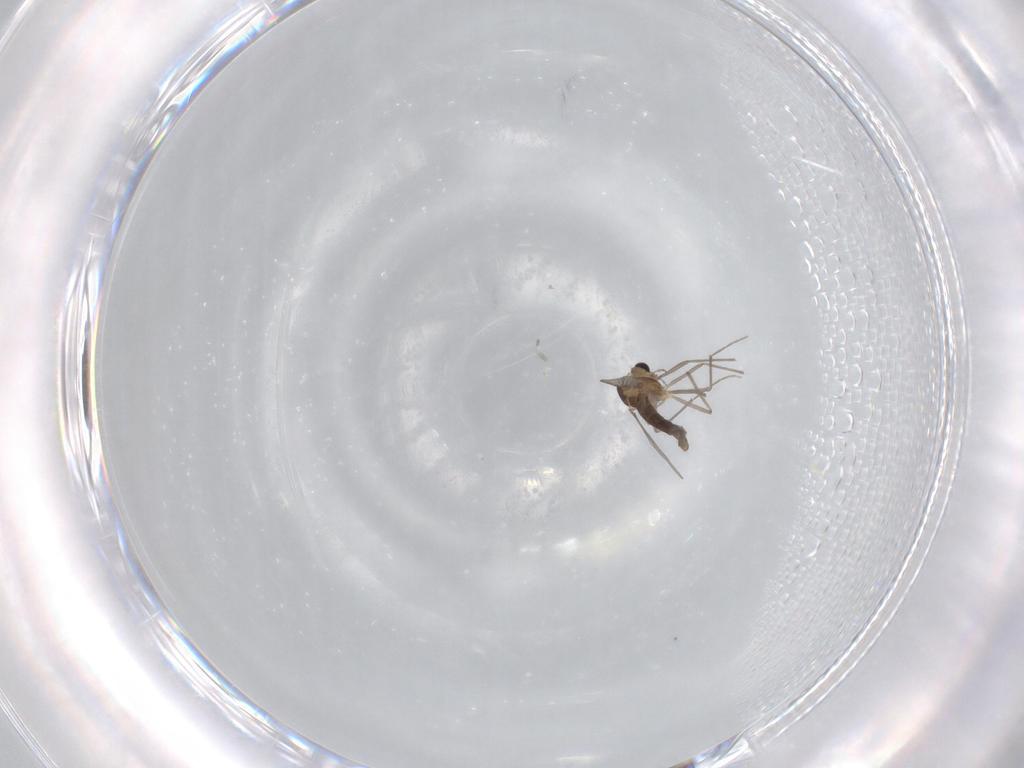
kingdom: Animalia
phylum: Arthropoda
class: Insecta
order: Diptera
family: Chironomidae
